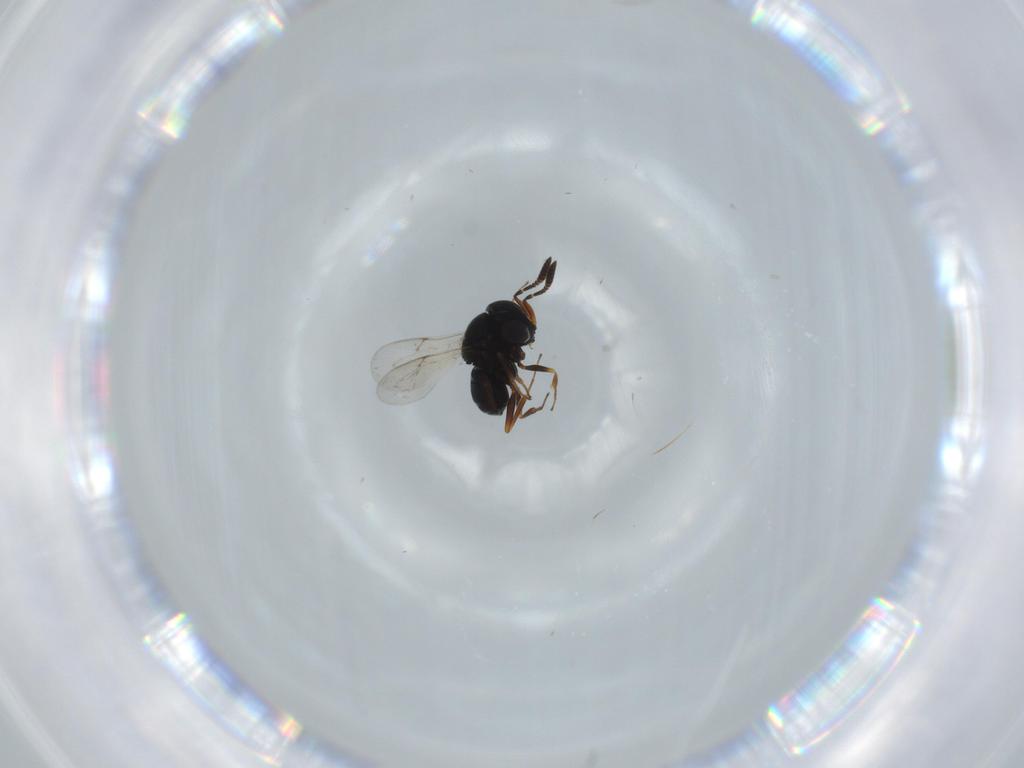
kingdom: Animalia
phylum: Arthropoda
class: Insecta
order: Hymenoptera
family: Scelionidae
